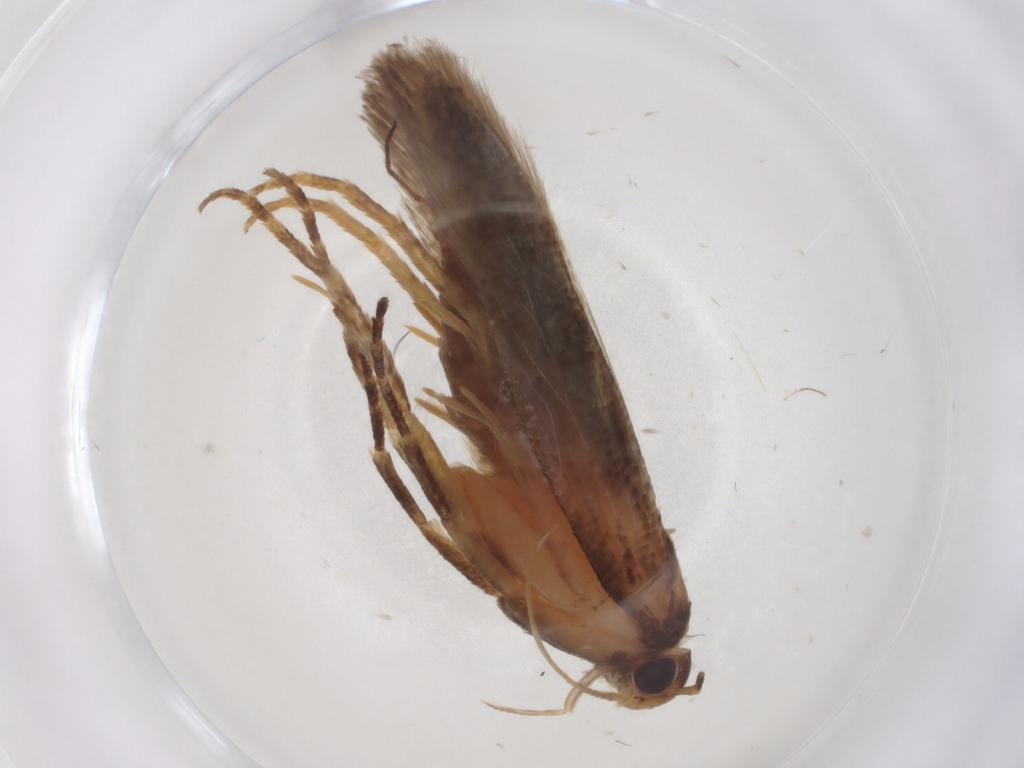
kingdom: Animalia
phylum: Arthropoda
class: Insecta
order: Lepidoptera
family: Gelechiidae
